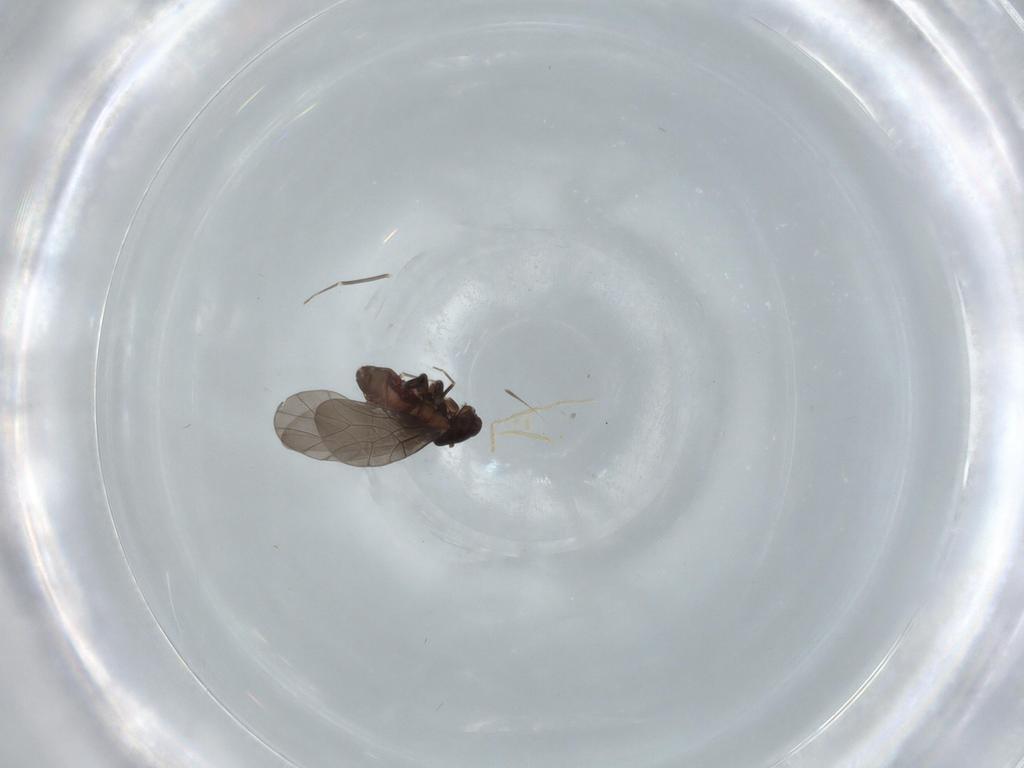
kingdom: Animalia
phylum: Arthropoda
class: Insecta
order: Psocodea
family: Lepidopsocidae
